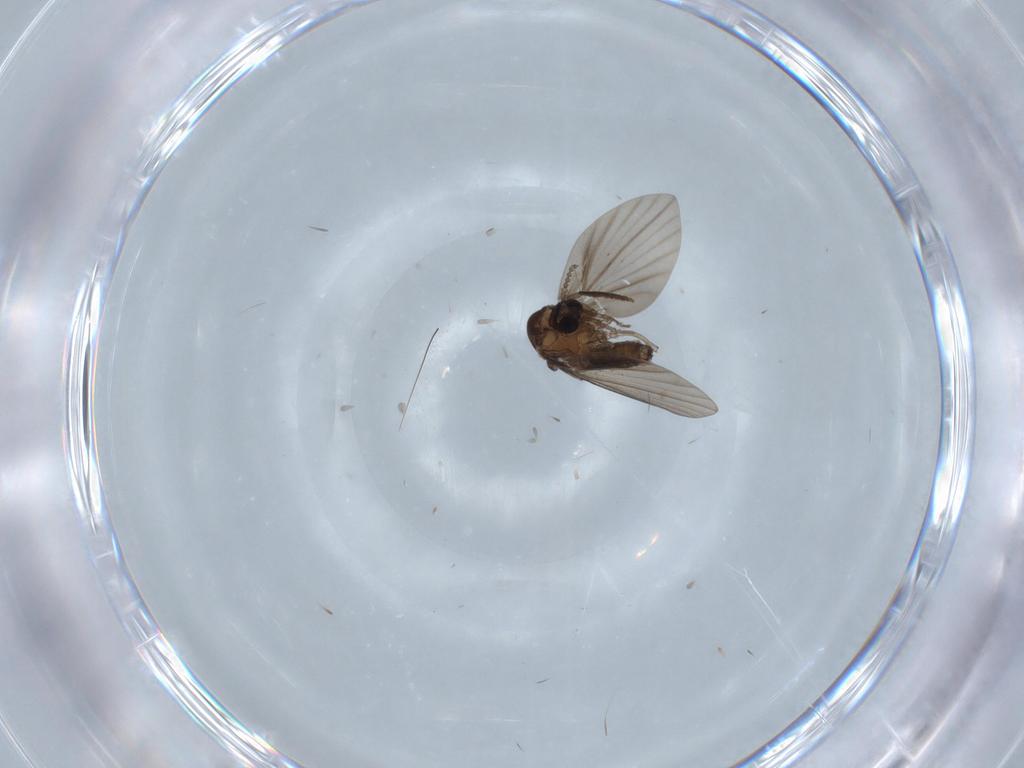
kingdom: Animalia
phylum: Arthropoda
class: Insecta
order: Diptera
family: Psychodidae
